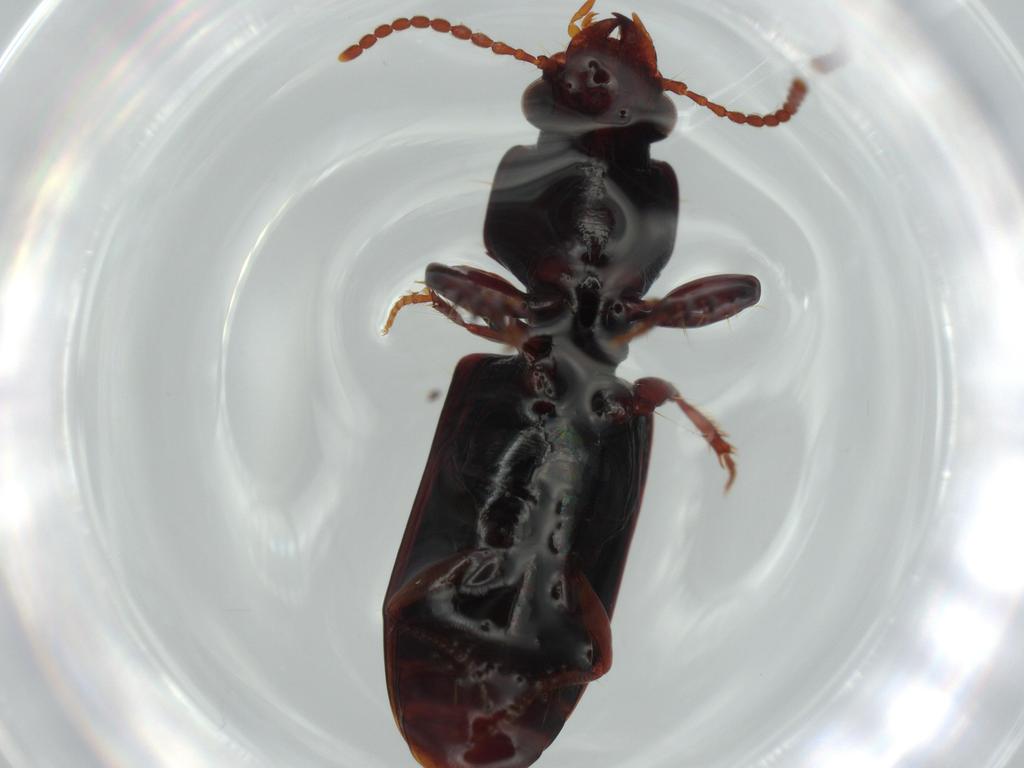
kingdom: Animalia
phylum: Arthropoda
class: Insecta
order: Coleoptera
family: Carabidae
